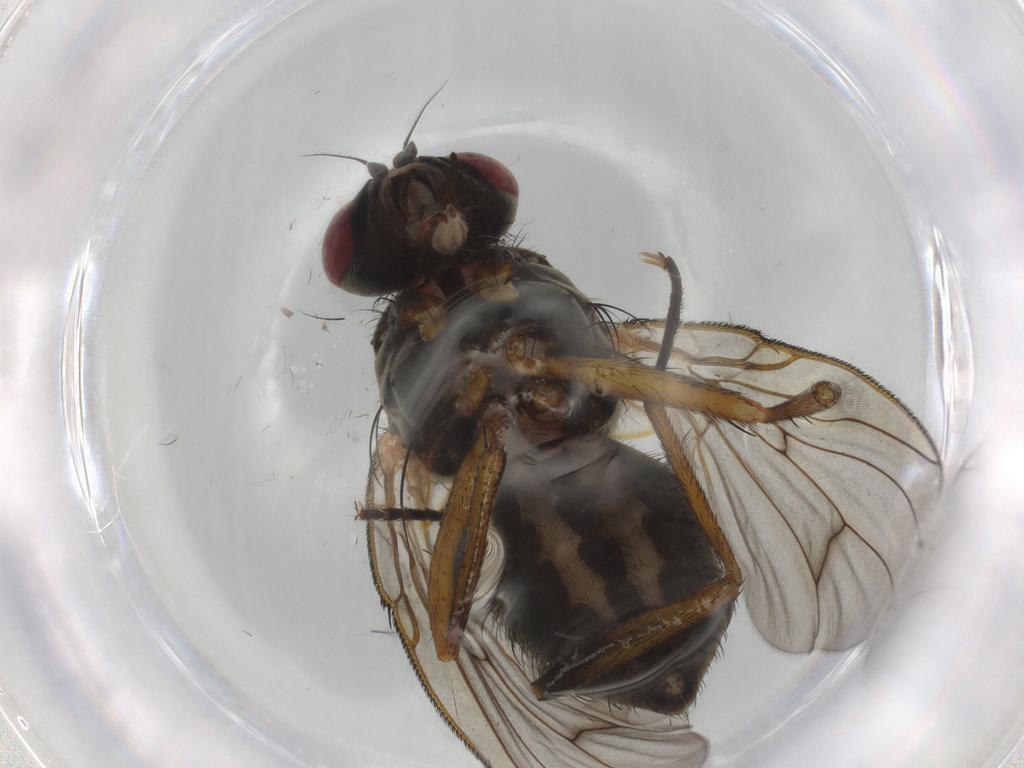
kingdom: Animalia
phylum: Arthropoda
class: Insecta
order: Diptera
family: Muscidae
